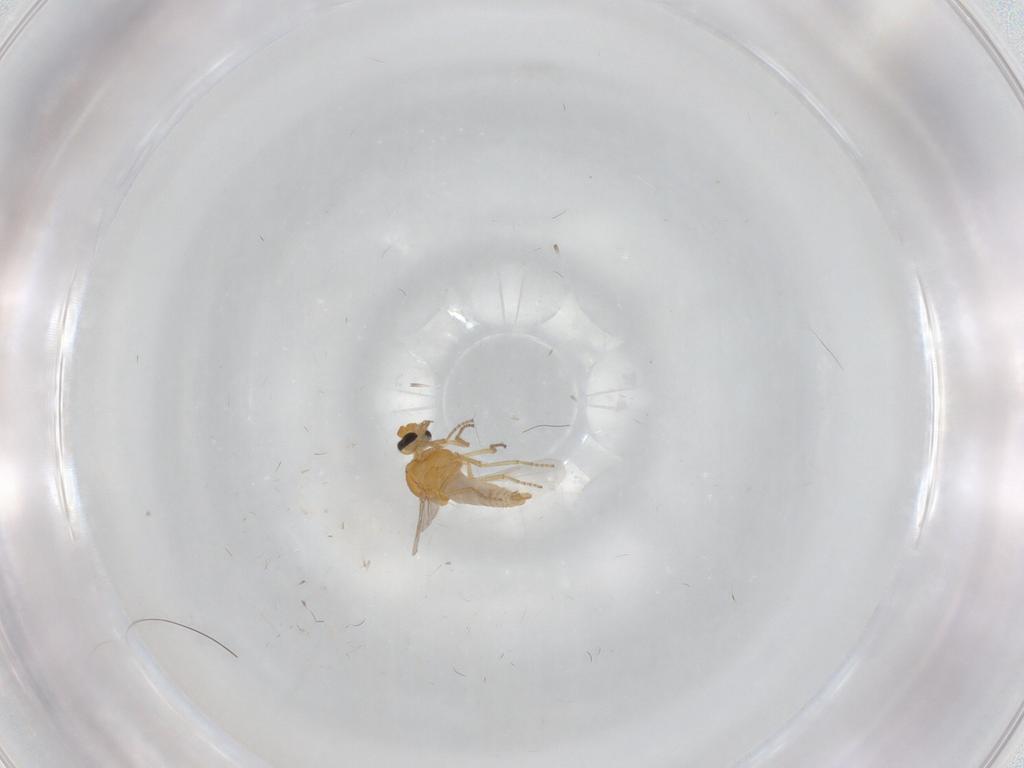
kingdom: Animalia
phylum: Arthropoda
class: Insecta
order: Diptera
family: Ceratopogonidae
